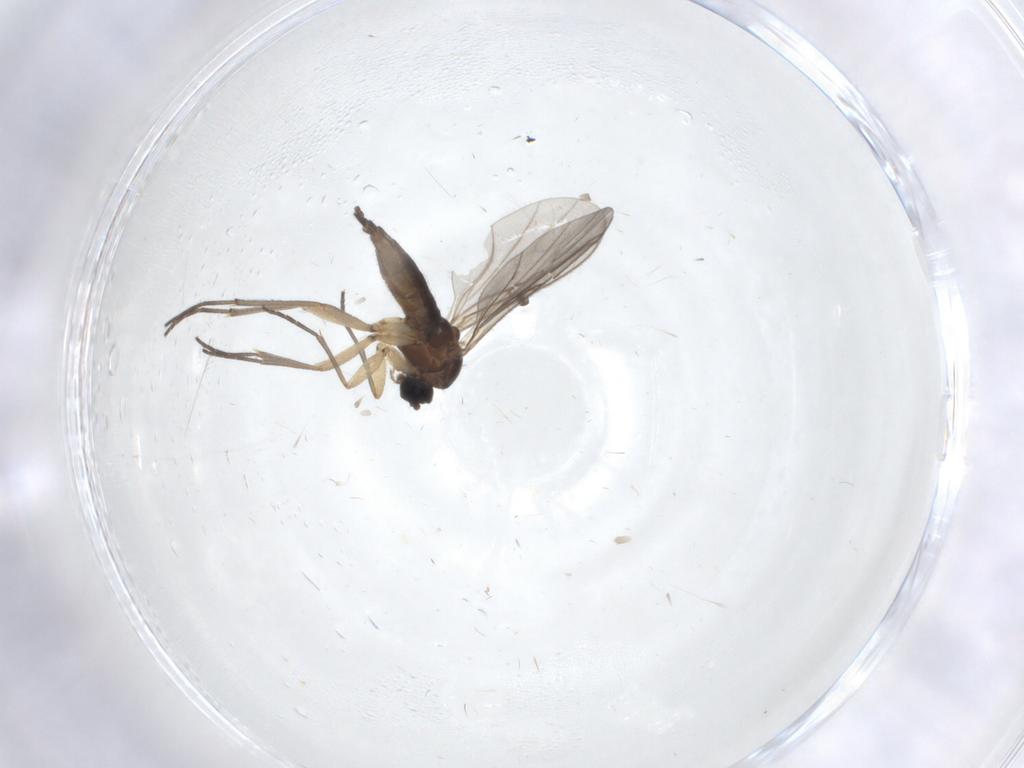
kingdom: Animalia
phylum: Arthropoda
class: Insecta
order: Diptera
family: Sciaridae
